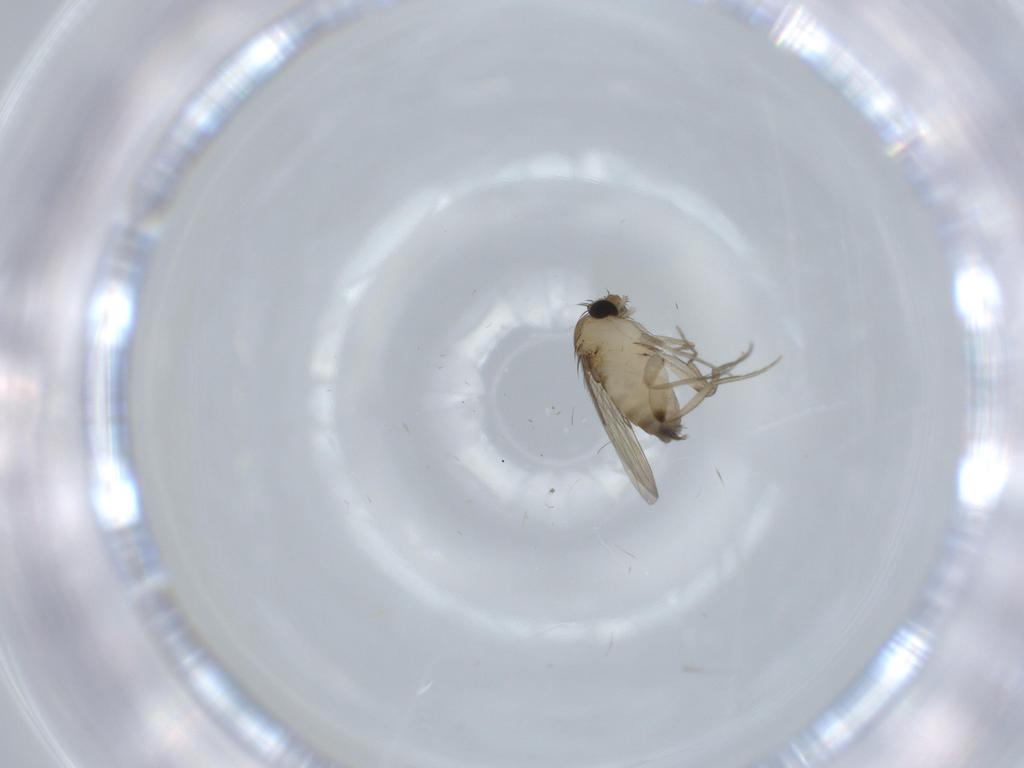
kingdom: Animalia
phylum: Arthropoda
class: Insecta
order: Diptera
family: Phoridae
